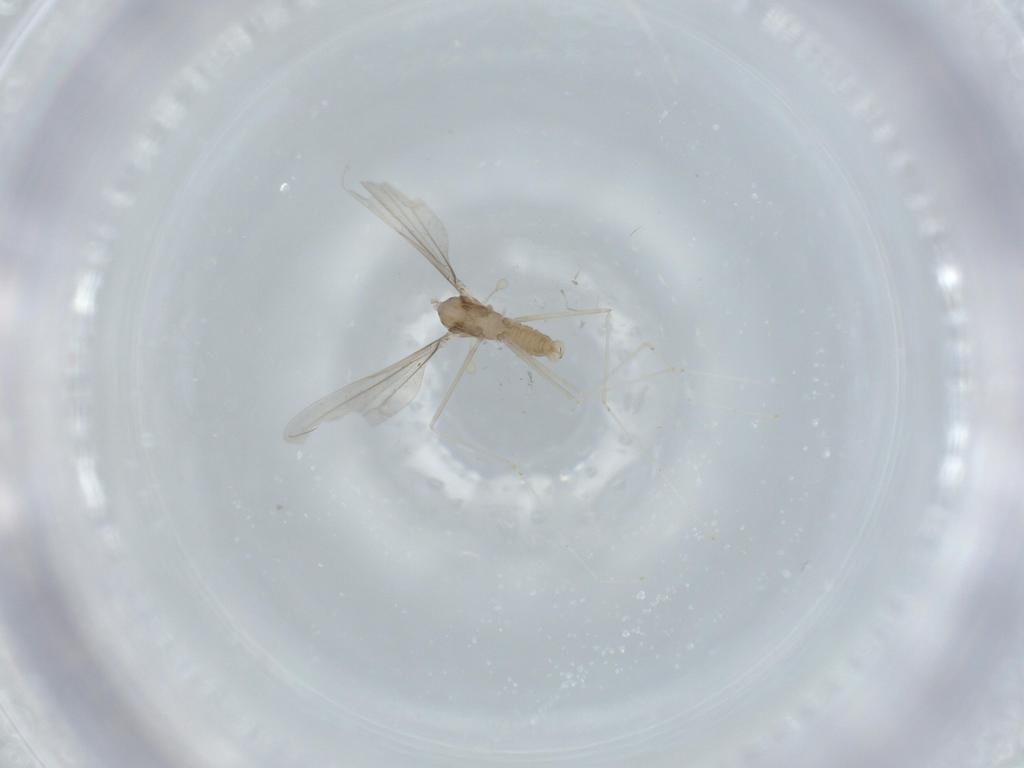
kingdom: Animalia
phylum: Arthropoda
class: Insecta
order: Diptera
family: Cecidomyiidae
